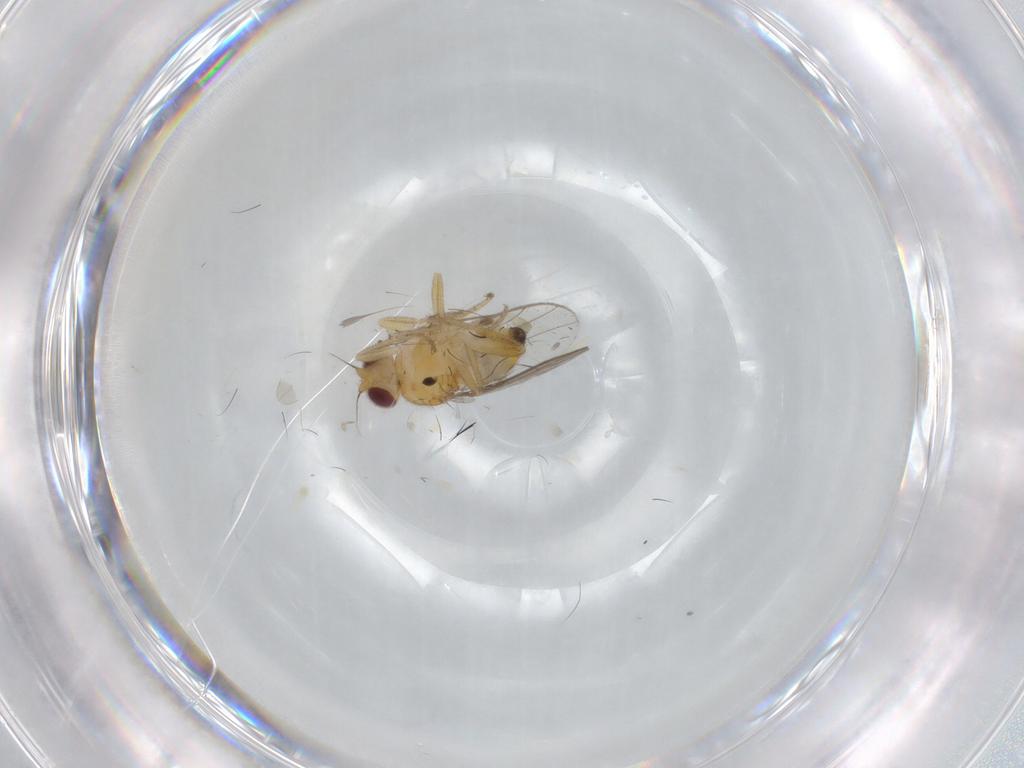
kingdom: Animalia
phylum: Arthropoda
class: Insecta
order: Diptera
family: Chloropidae
